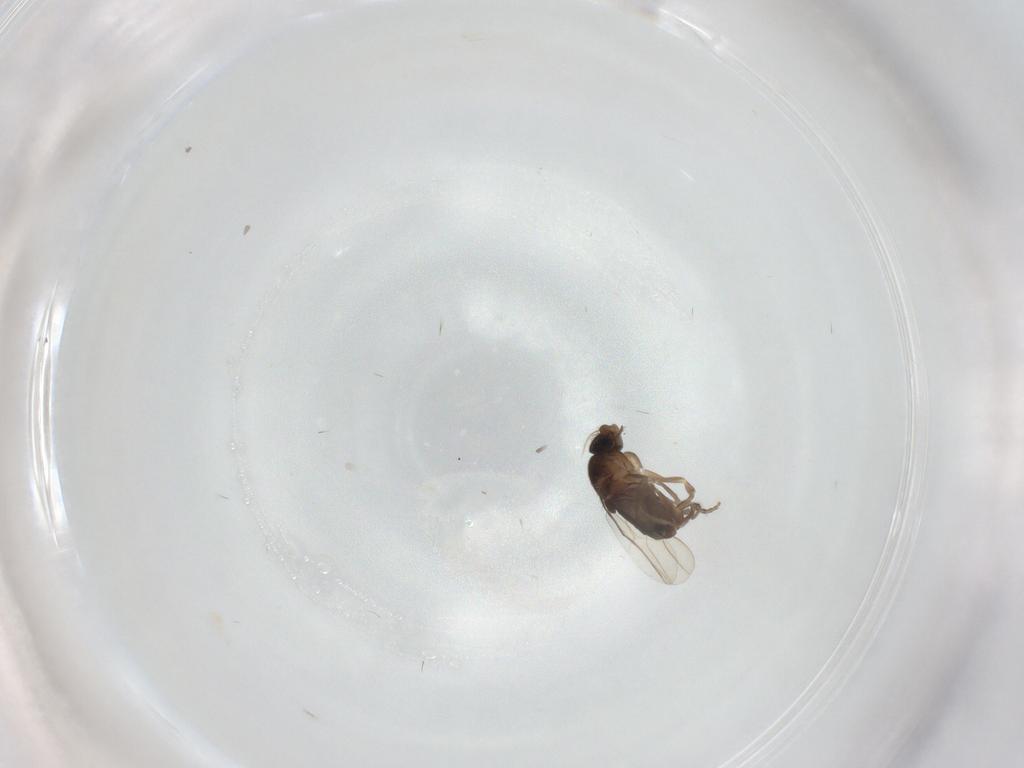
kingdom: Animalia
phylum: Arthropoda
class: Insecta
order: Diptera
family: Phoridae
